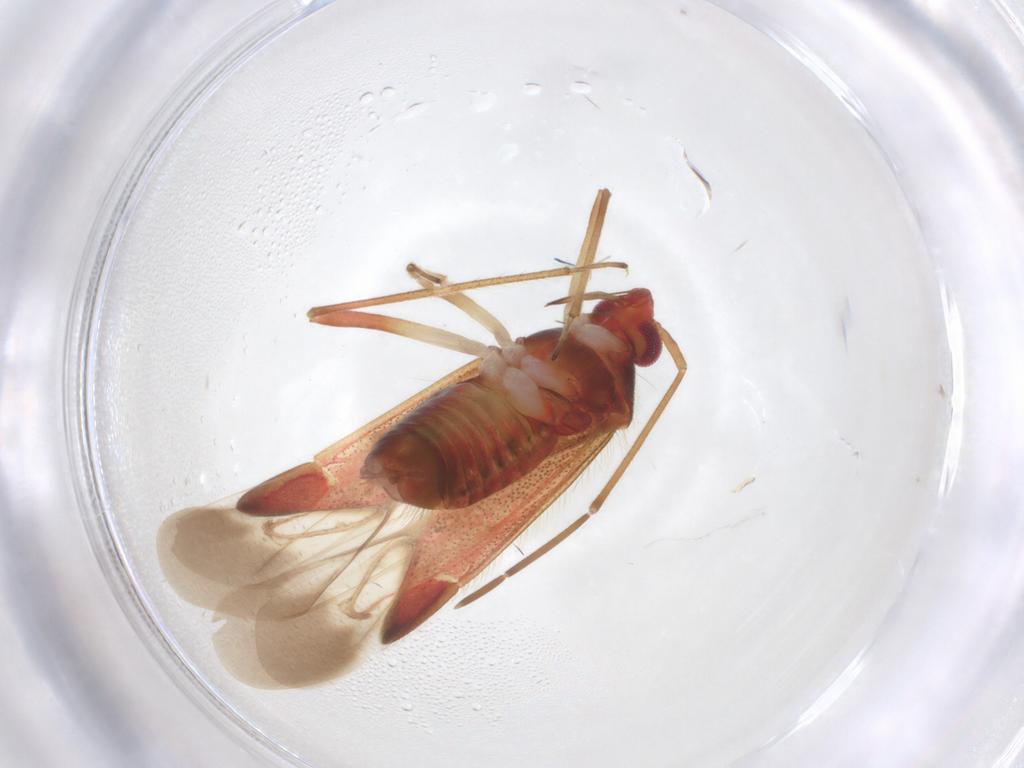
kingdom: Animalia
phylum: Arthropoda
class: Insecta
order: Hemiptera
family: Miridae
